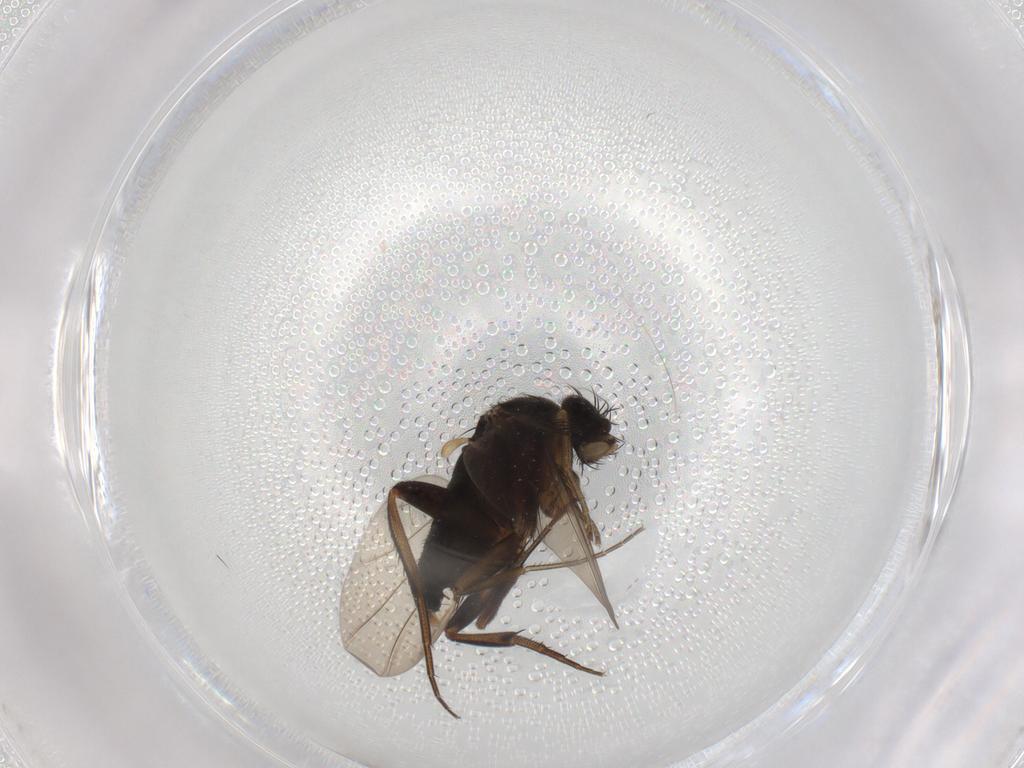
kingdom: Animalia
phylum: Arthropoda
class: Insecta
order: Diptera
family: Phoridae
